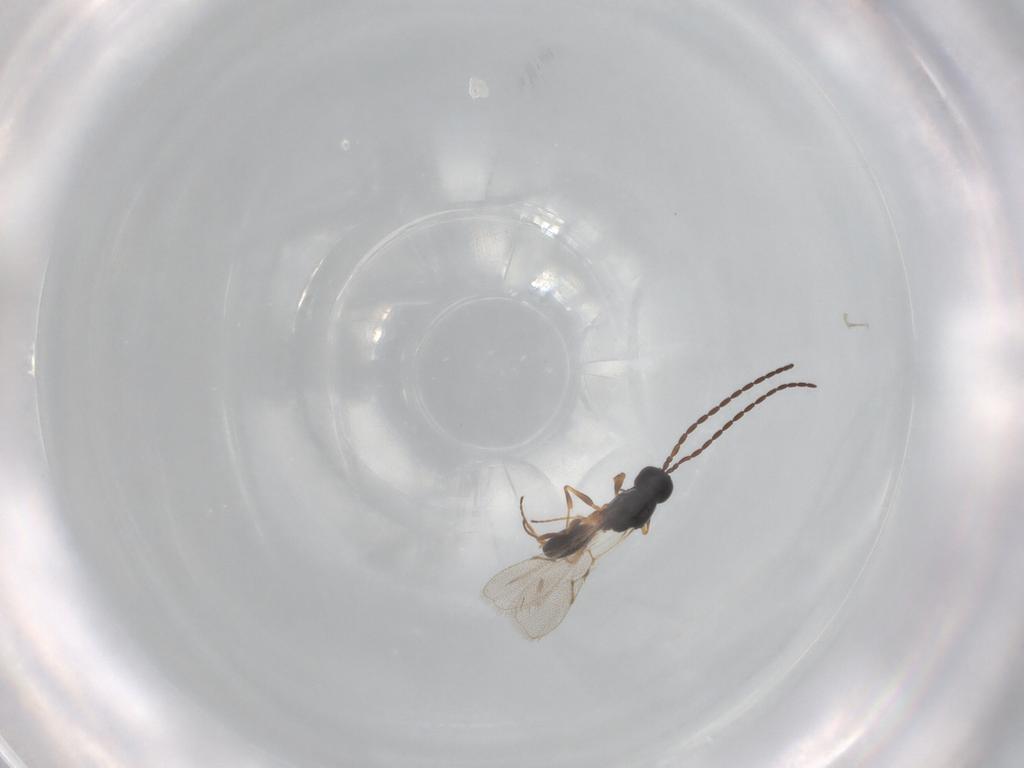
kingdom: Animalia
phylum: Arthropoda
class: Insecta
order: Hymenoptera
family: Figitidae
